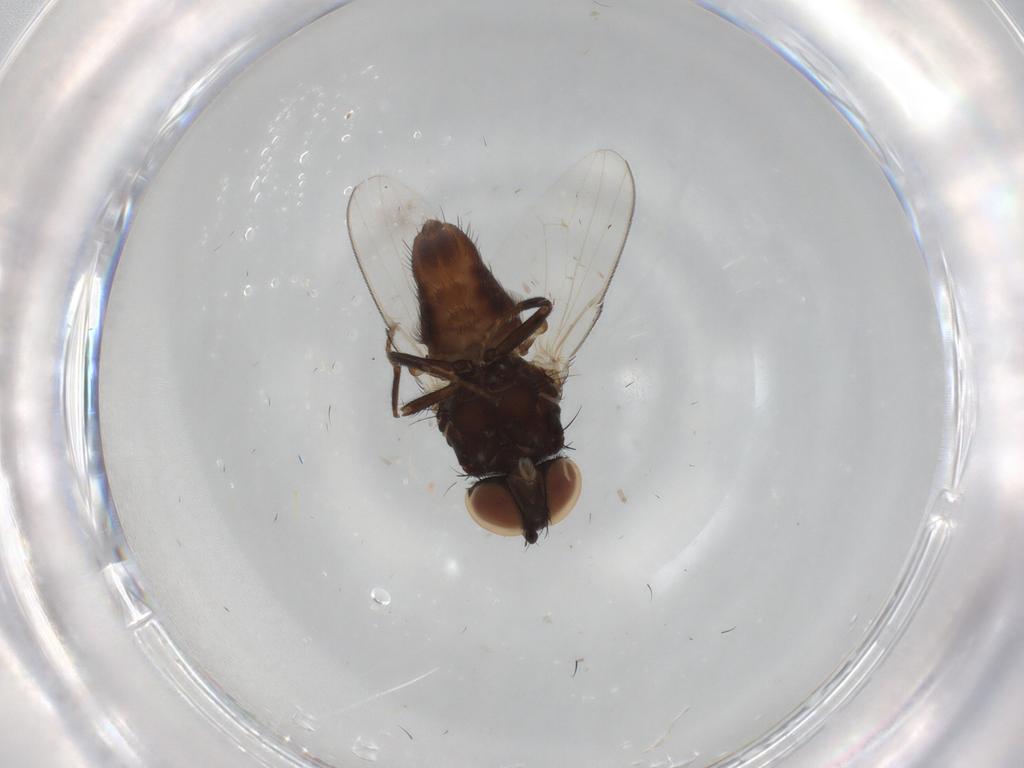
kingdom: Animalia
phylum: Arthropoda
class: Insecta
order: Diptera
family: Milichiidae
